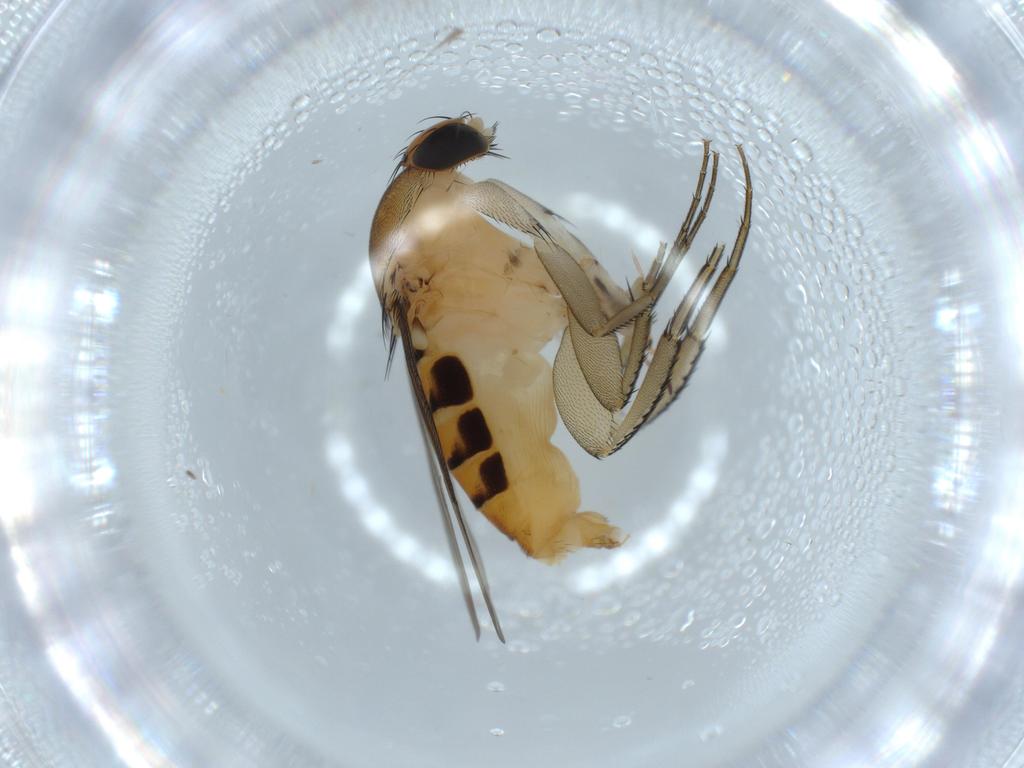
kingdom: Animalia
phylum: Arthropoda
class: Insecta
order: Diptera
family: Phoridae
